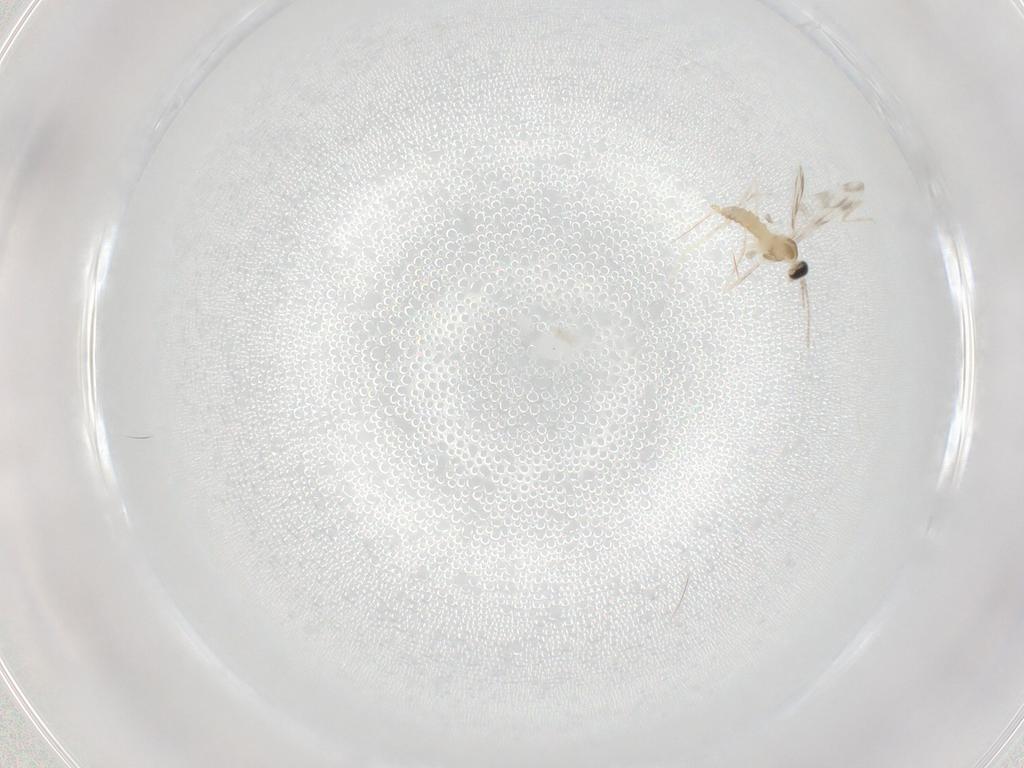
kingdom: Animalia
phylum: Arthropoda
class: Insecta
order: Diptera
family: Cecidomyiidae
